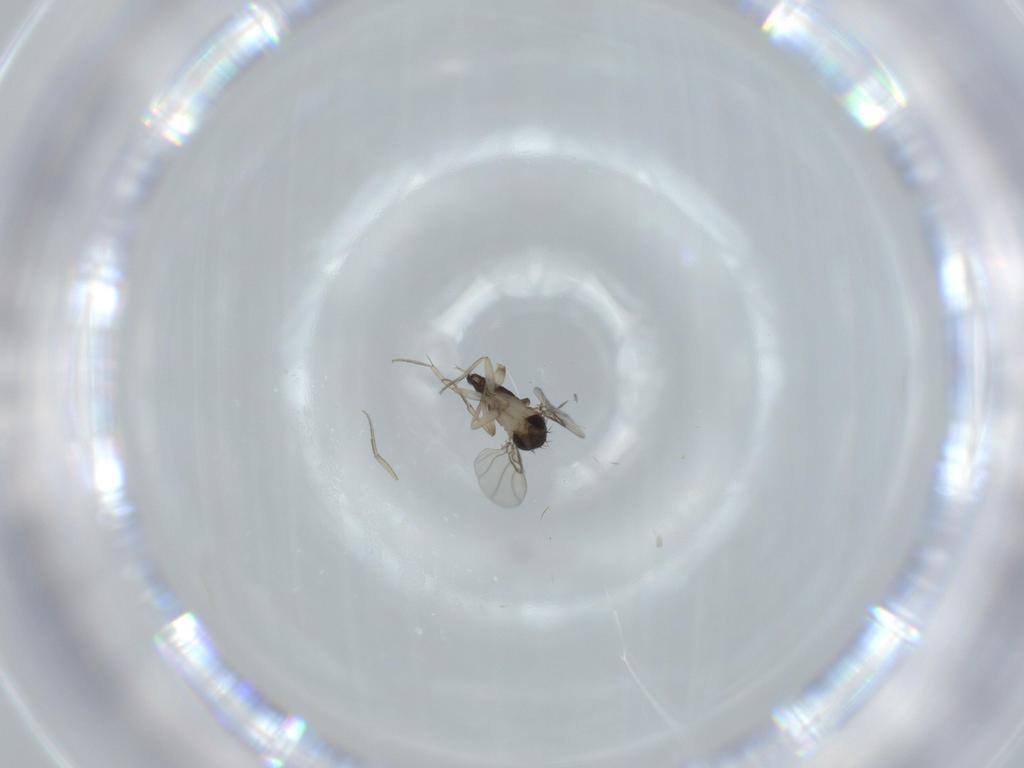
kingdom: Animalia
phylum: Arthropoda
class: Insecta
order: Diptera
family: Phoridae
